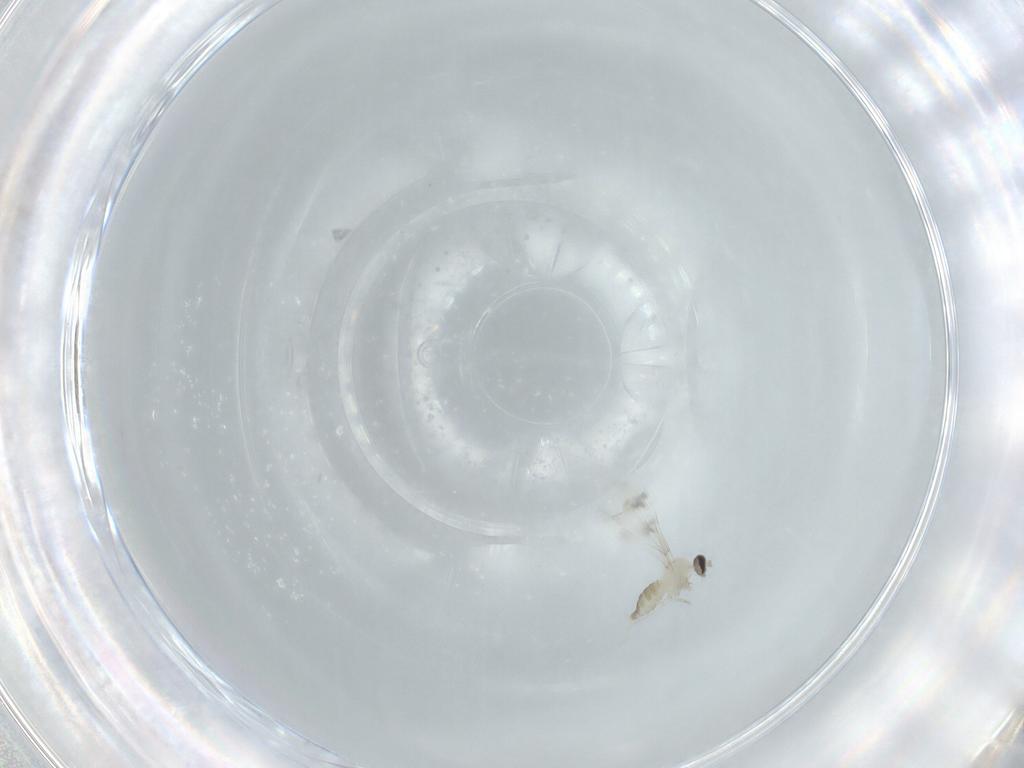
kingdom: Animalia
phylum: Arthropoda
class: Insecta
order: Diptera
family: Cecidomyiidae
